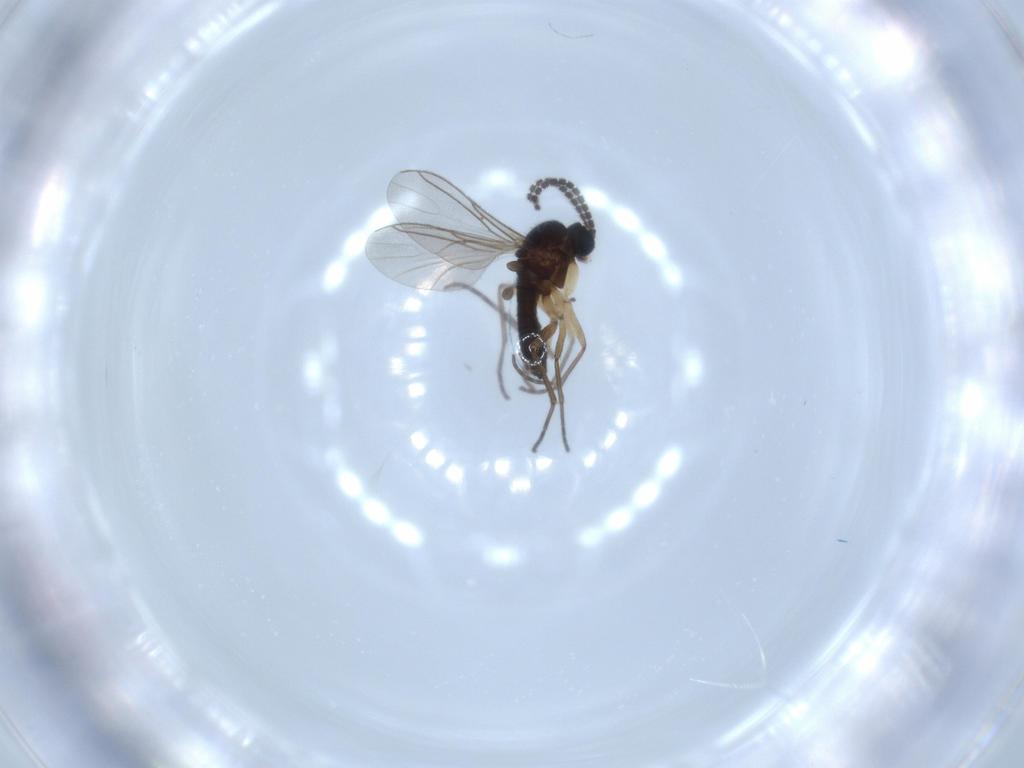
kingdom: Animalia
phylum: Arthropoda
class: Insecta
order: Diptera
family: Sciaridae
